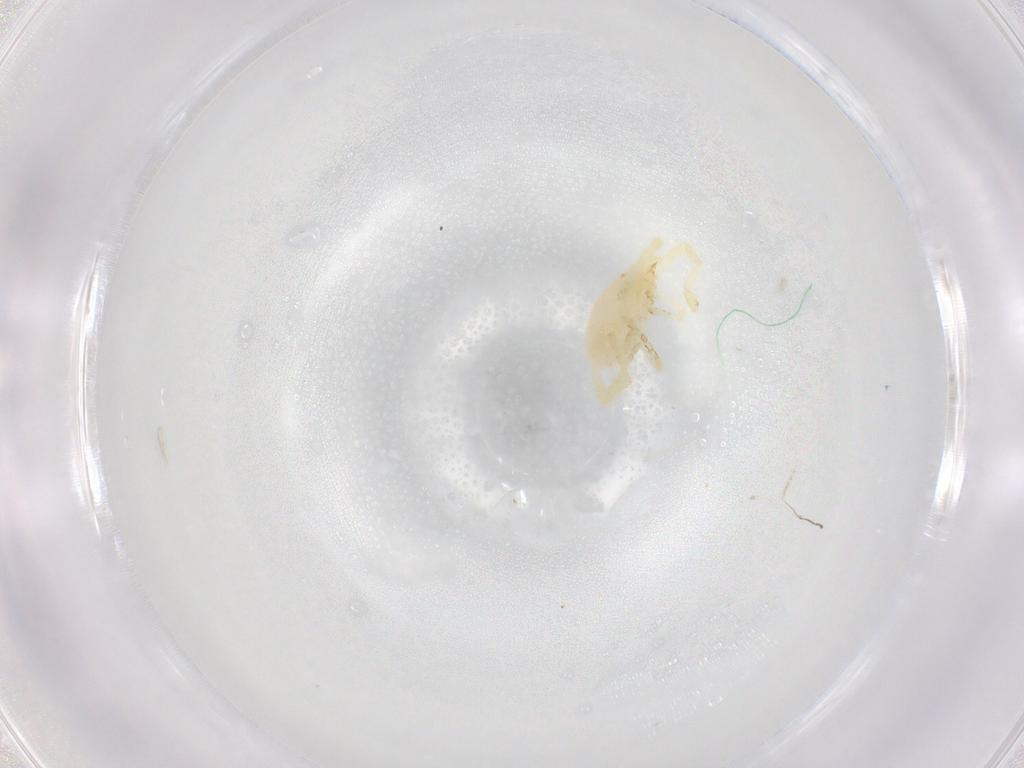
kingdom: Animalia
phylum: Arthropoda
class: Arachnida
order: Trombidiformes
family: Erythraeidae
